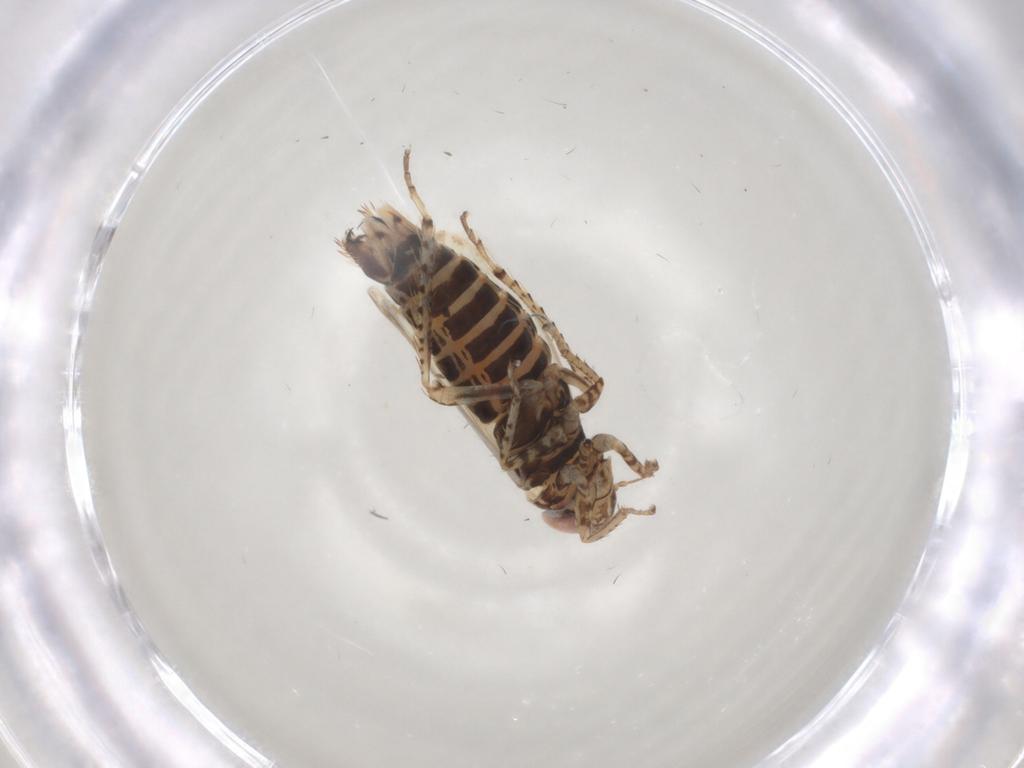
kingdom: Animalia
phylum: Arthropoda
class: Insecta
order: Hemiptera
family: Cicadellidae
